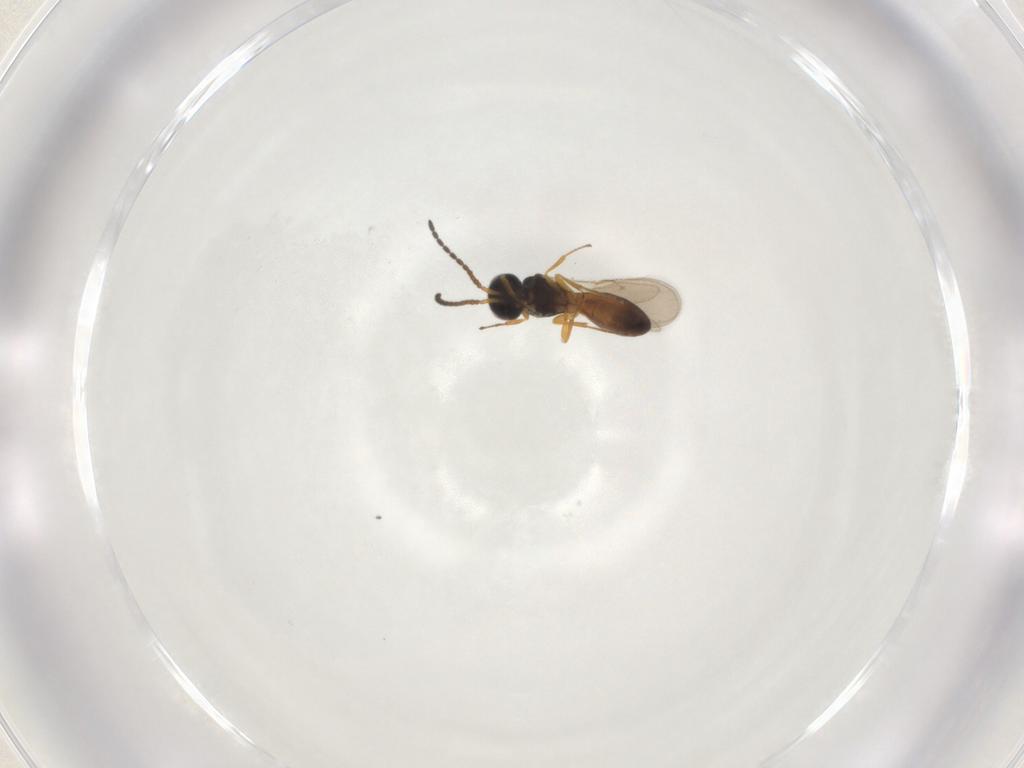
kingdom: Animalia
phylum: Arthropoda
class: Insecta
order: Hymenoptera
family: Scelionidae
